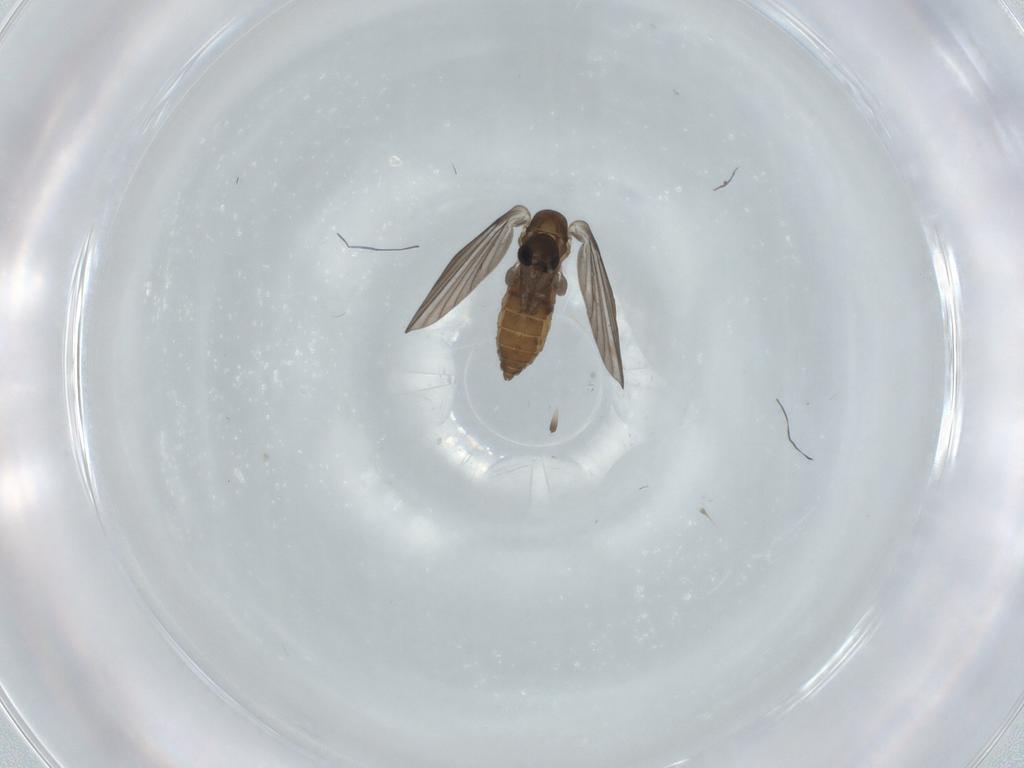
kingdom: Animalia
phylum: Arthropoda
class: Insecta
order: Diptera
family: Psychodidae
